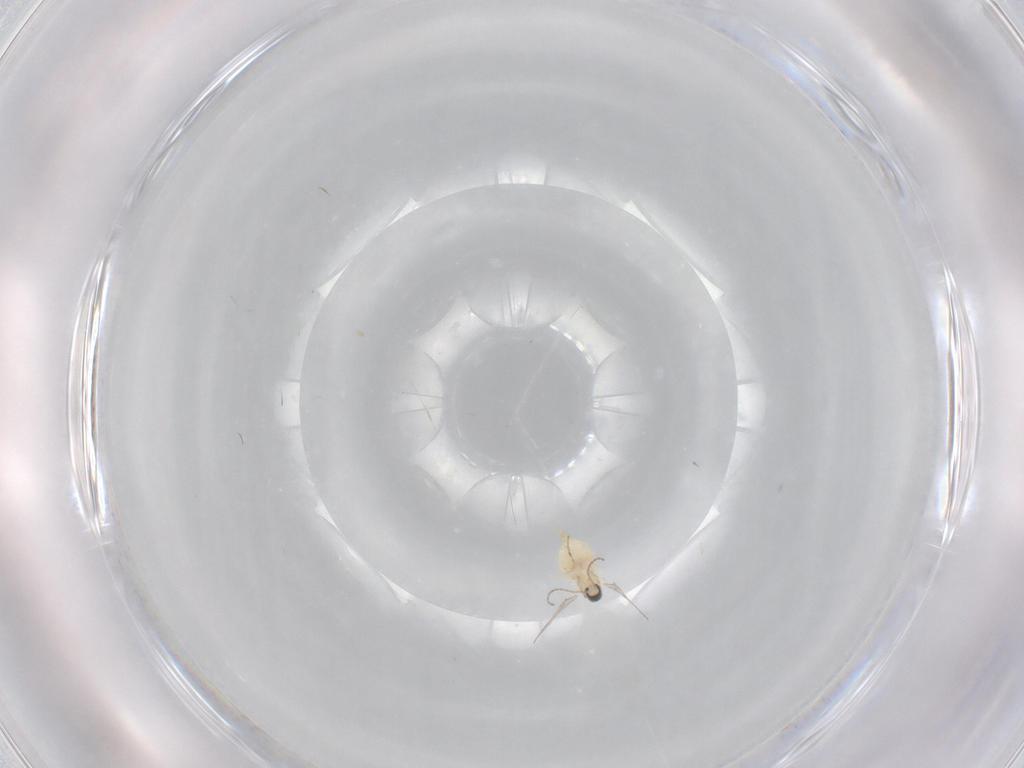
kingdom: Animalia
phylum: Arthropoda
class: Insecta
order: Diptera
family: Cecidomyiidae
